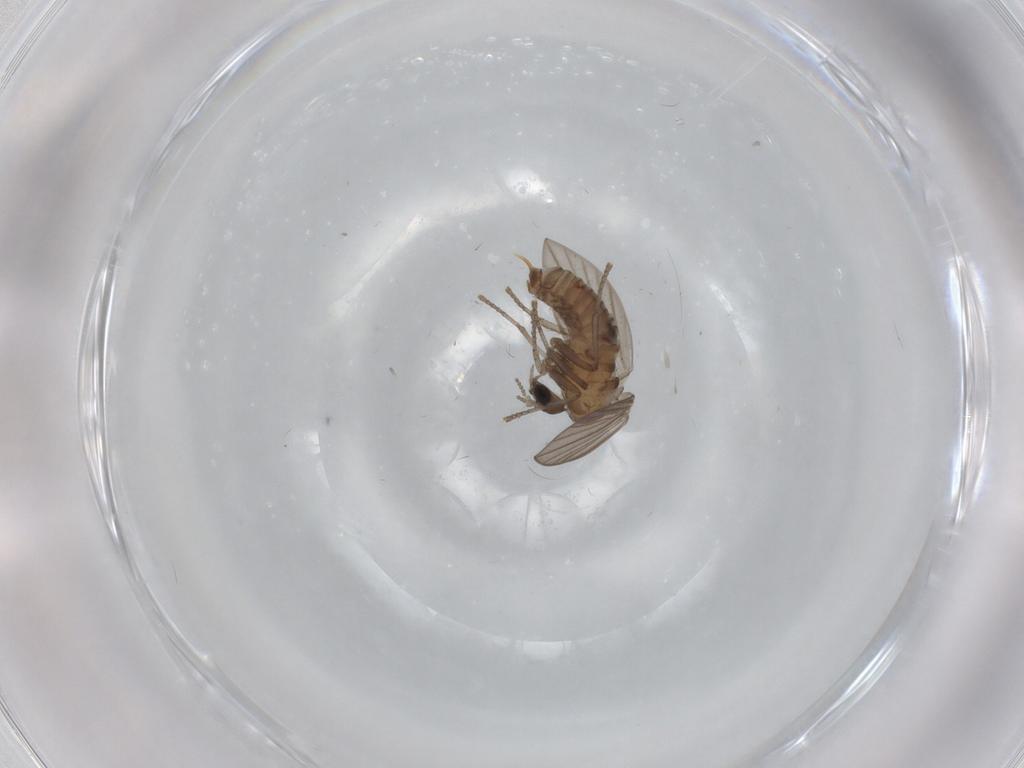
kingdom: Animalia
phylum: Arthropoda
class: Insecta
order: Diptera
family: Psychodidae
